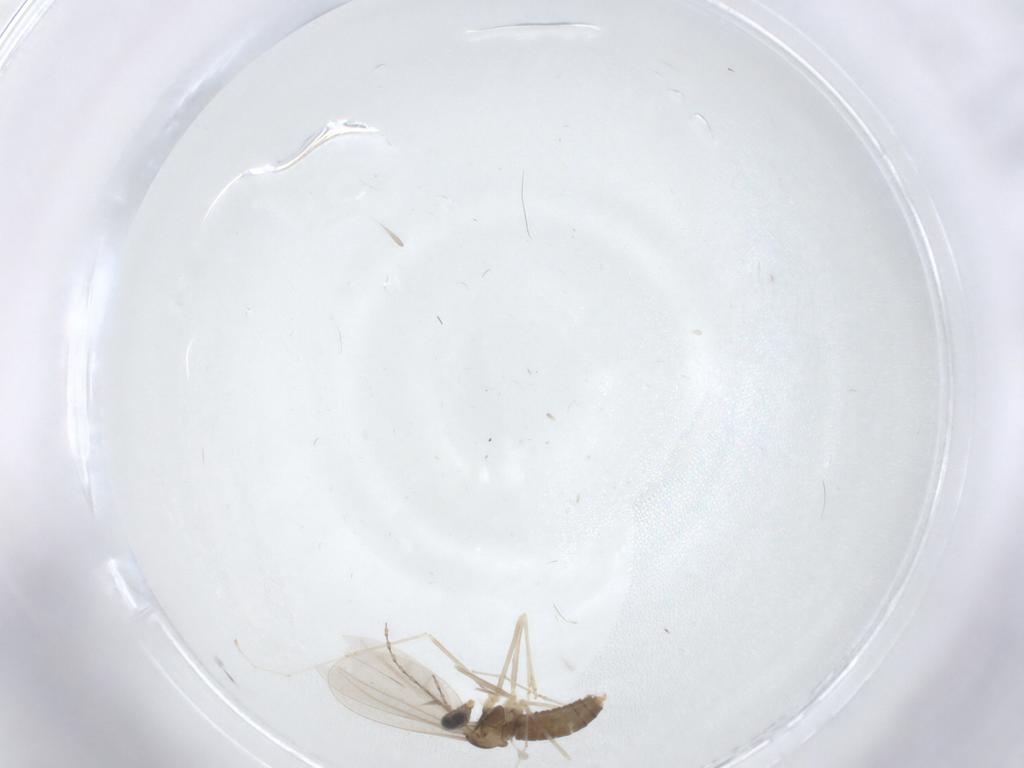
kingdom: Animalia
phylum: Arthropoda
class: Insecta
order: Diptera
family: Cecidomyiidae
